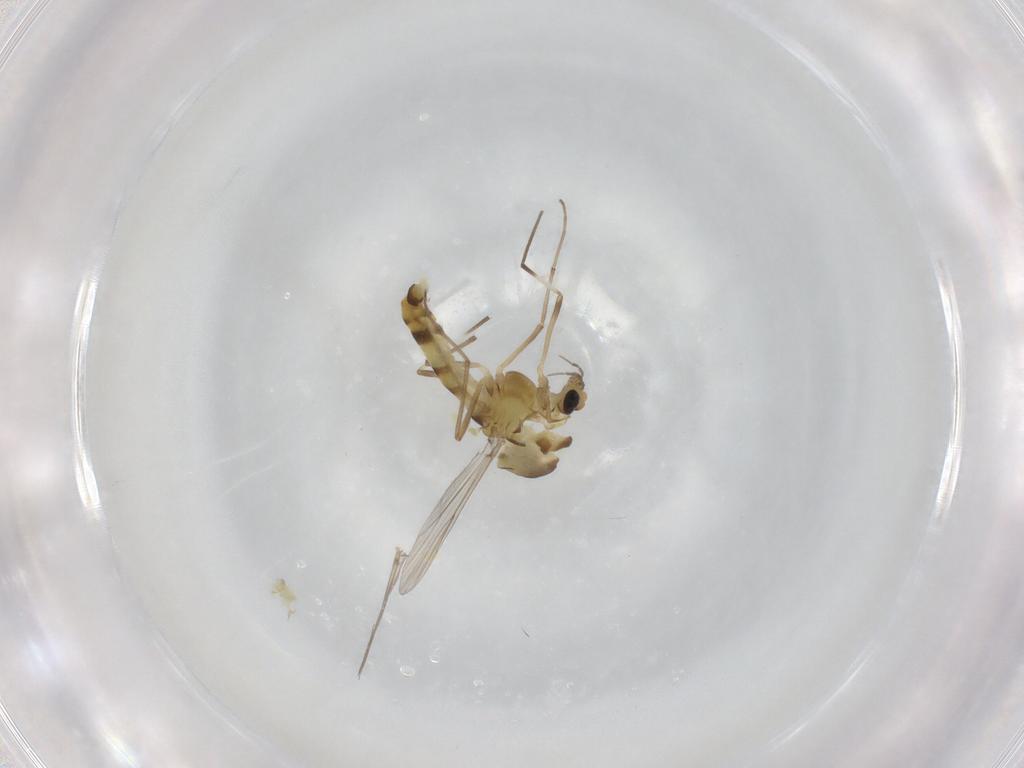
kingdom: Animalia
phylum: Arthropoda
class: Insecta
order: Diptera
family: Chironomidae
